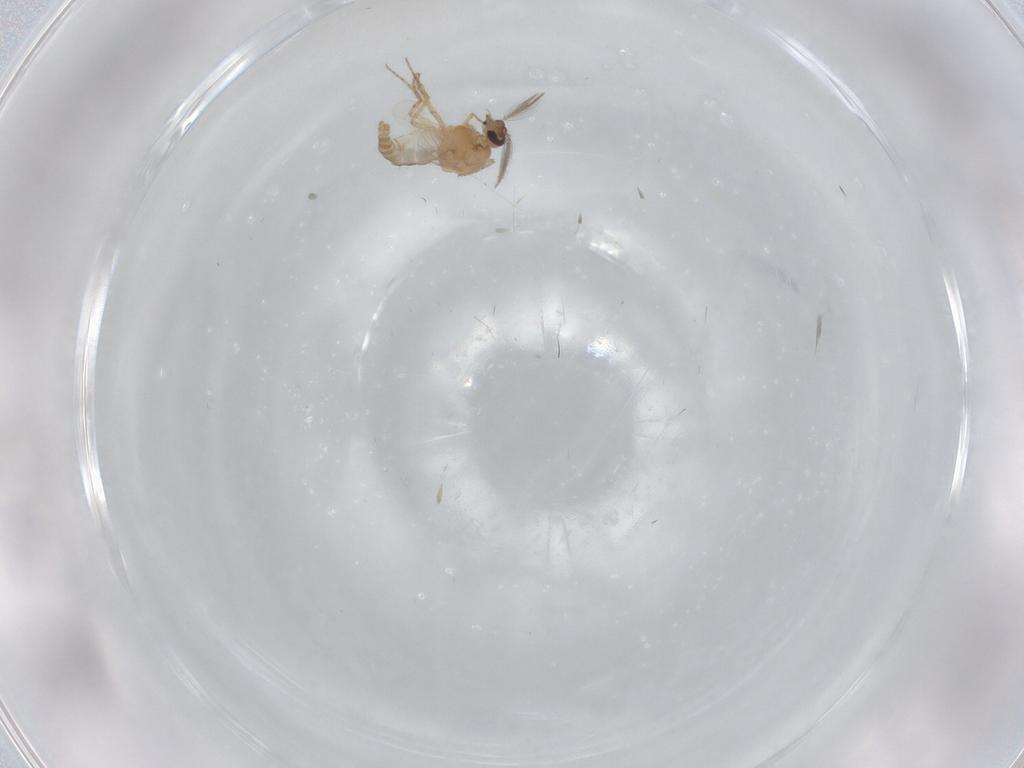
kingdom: Animalia
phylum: Arthropoda
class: Insecta
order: Diptera
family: Ceratopogonidae
